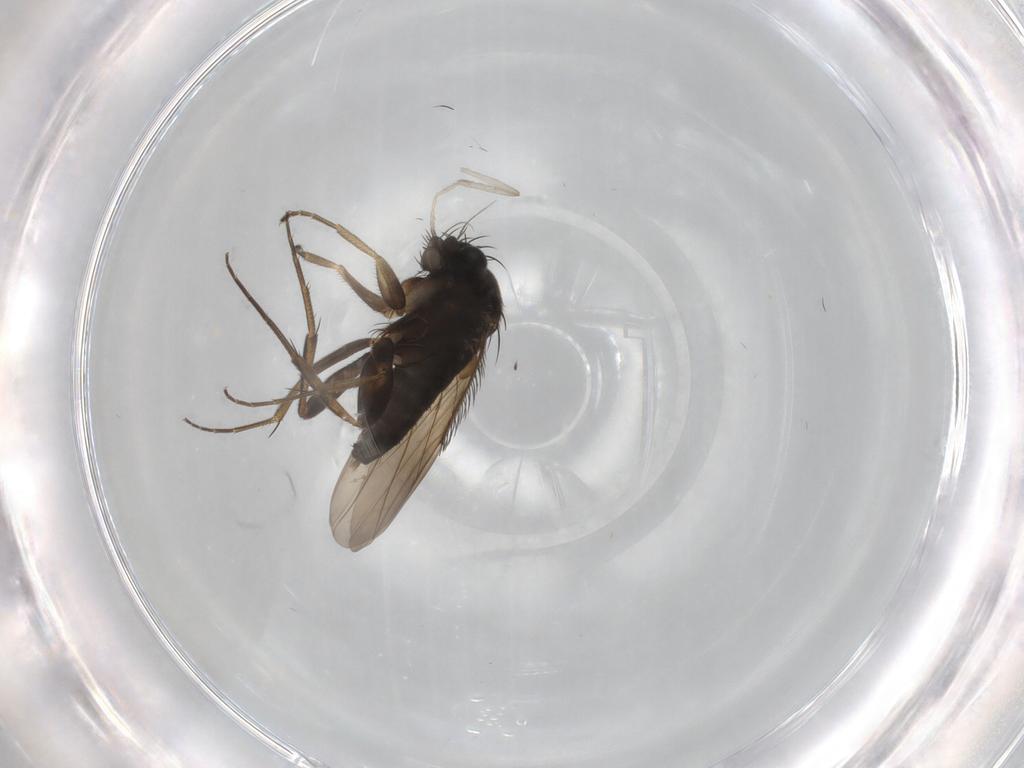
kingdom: Animalia
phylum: Arthropoda
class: Insecta
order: Diptera
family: Phoridae
